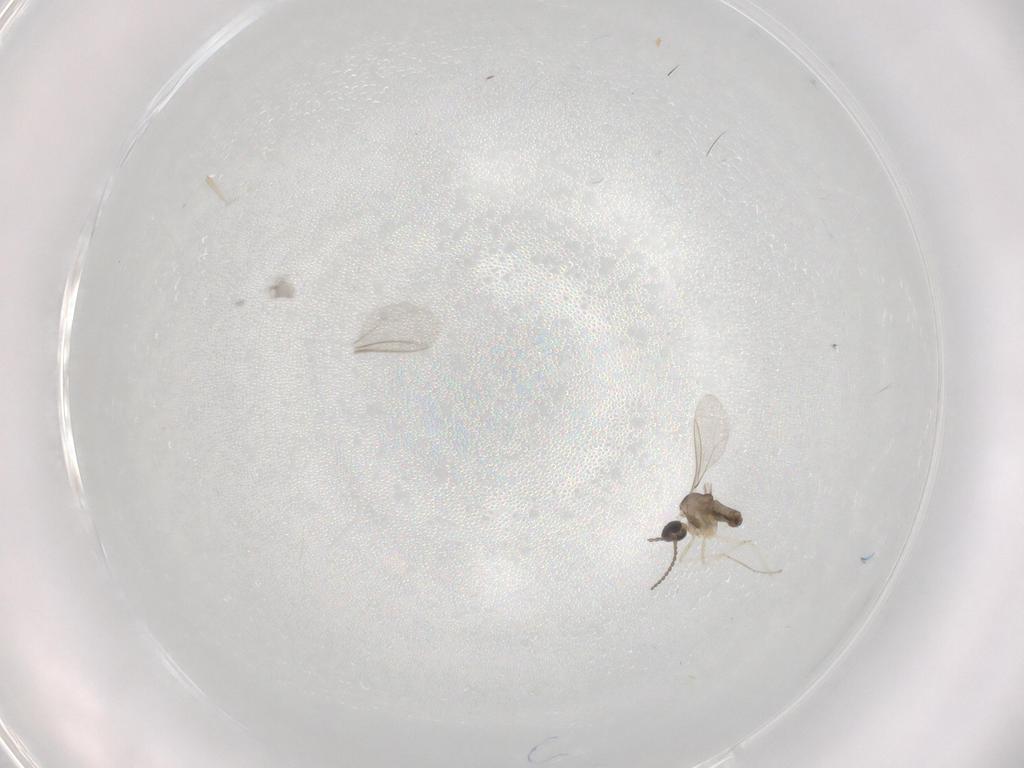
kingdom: Animalia
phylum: Arthropoda
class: Insecta
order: Diptera
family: Cecidomyiidae
